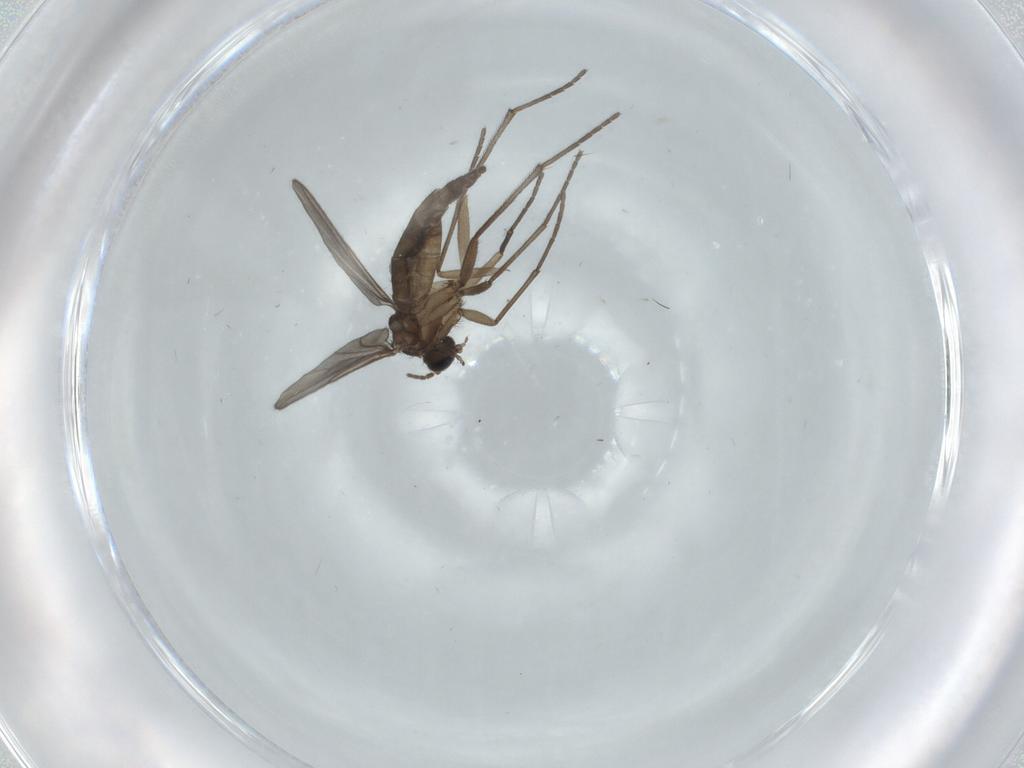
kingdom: Animalia
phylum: Arthropoda
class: Insecta
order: Diptera
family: Sciaridae
